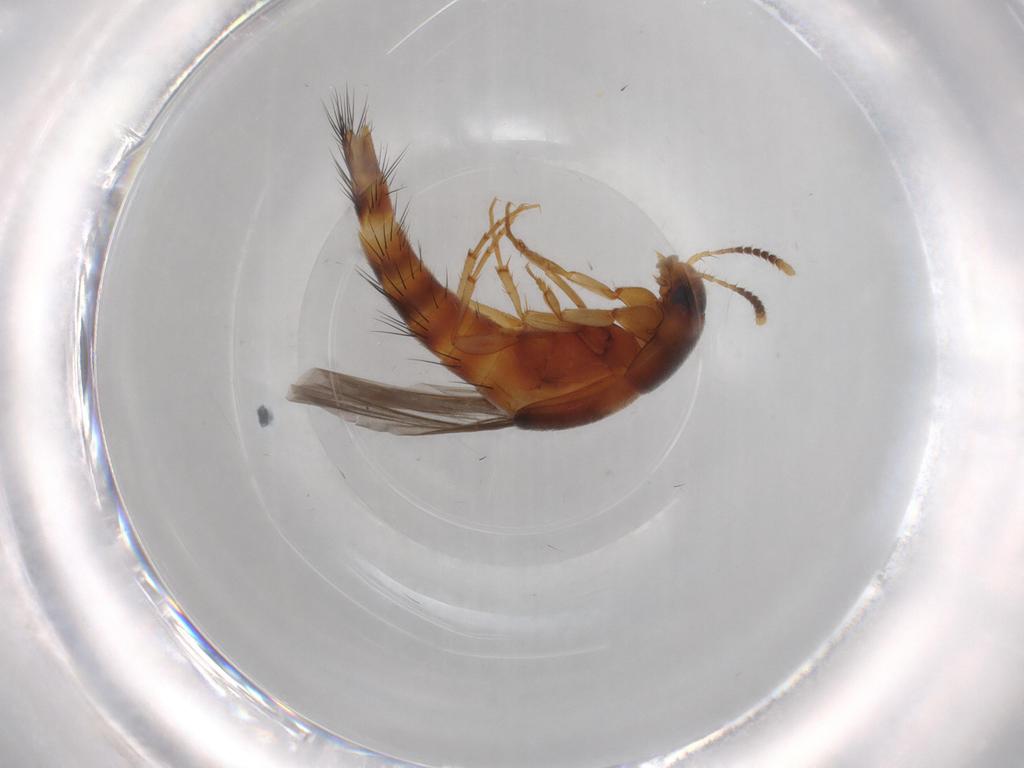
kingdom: Animalia
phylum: Arthropoda
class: Insecta
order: Coleoptera
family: Staphylinidae
